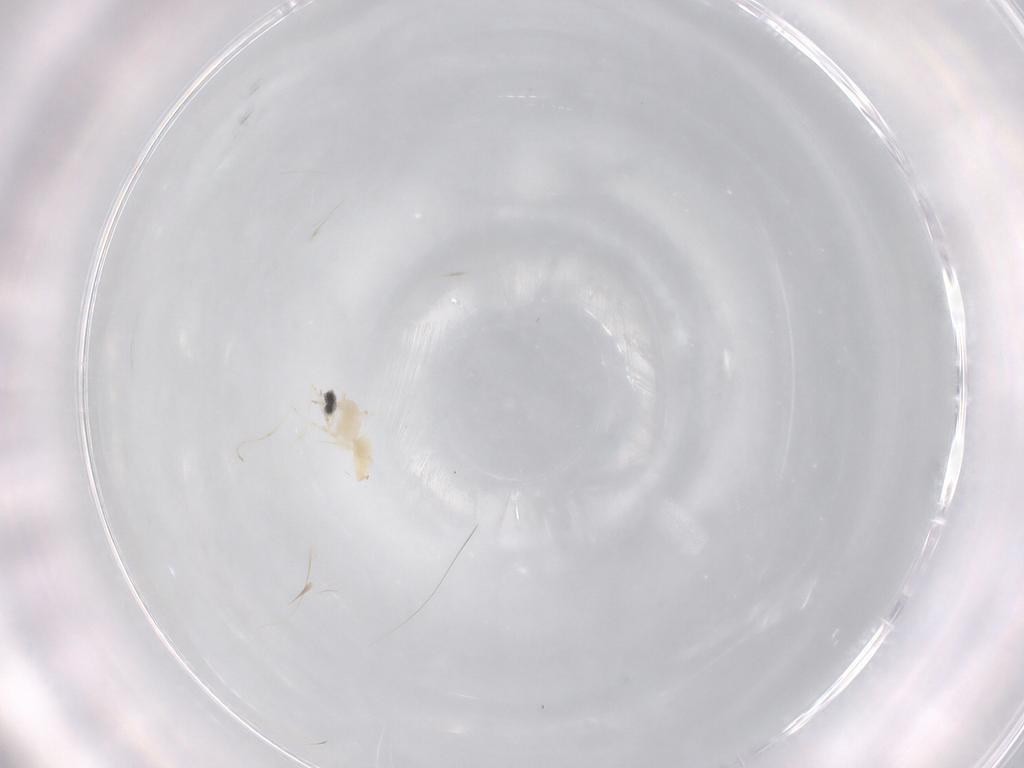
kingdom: Animalia
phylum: Arthropoda
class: Insecta
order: Diptera
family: Cecidomyiidae
